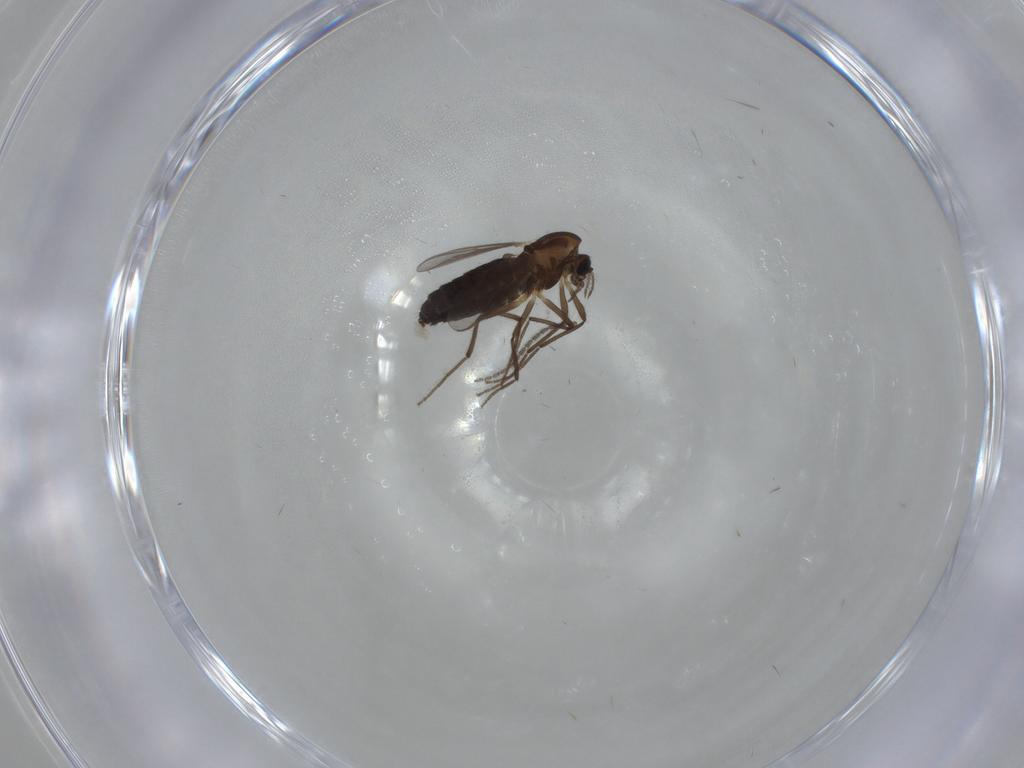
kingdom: Animalia
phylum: Arthropoda
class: Insecta
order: Diptera
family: Chironomidae
